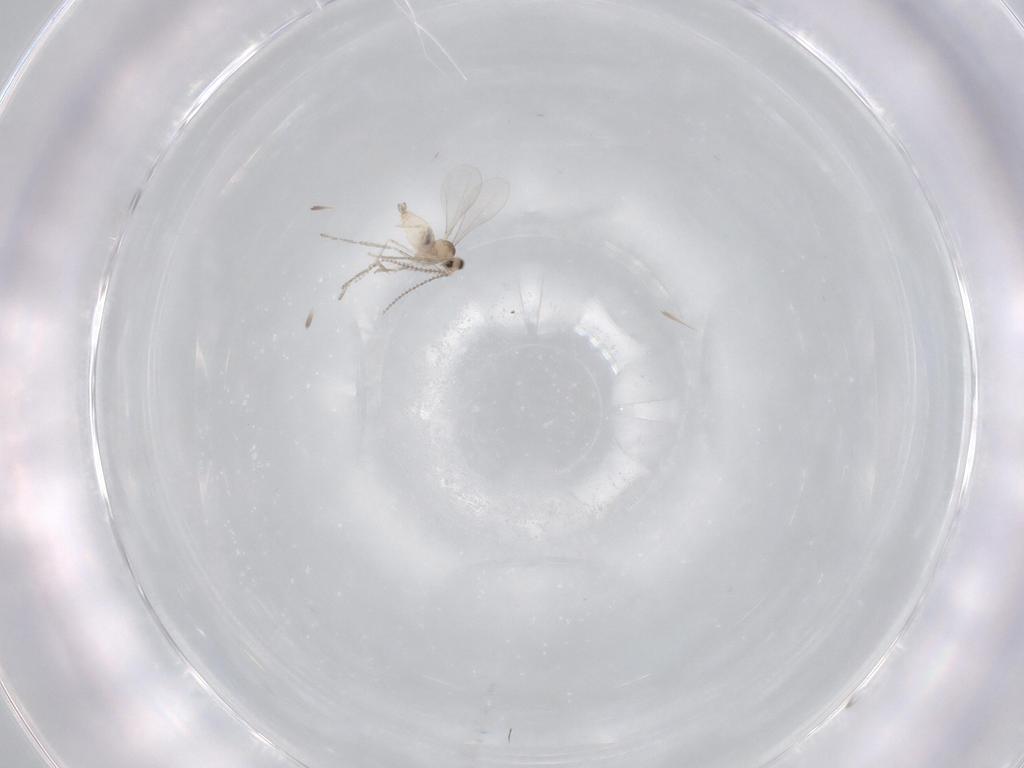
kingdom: Animalia
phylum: Arthropoda
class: Insecta
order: Diptera
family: Cecidomyiidae
